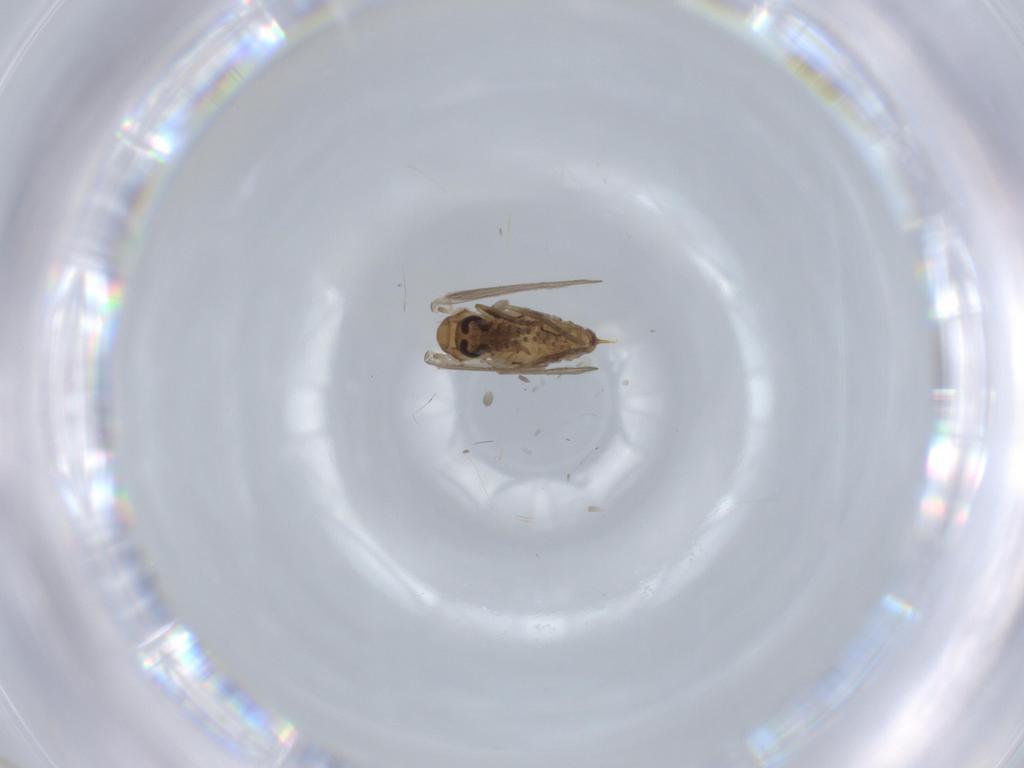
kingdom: Animalia
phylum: Arthropoda
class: Insecta
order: Diptera
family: Psychodidae
